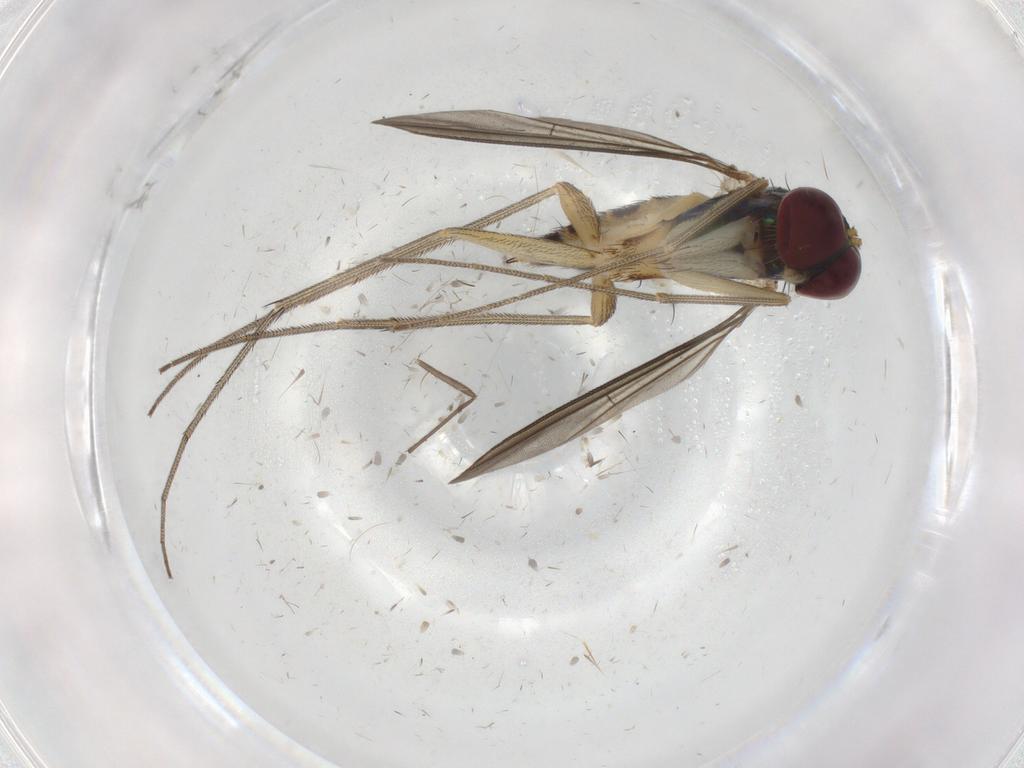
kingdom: Animalia
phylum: Arthropoda
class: Insecta
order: Diptera
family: Dolichopodidae
